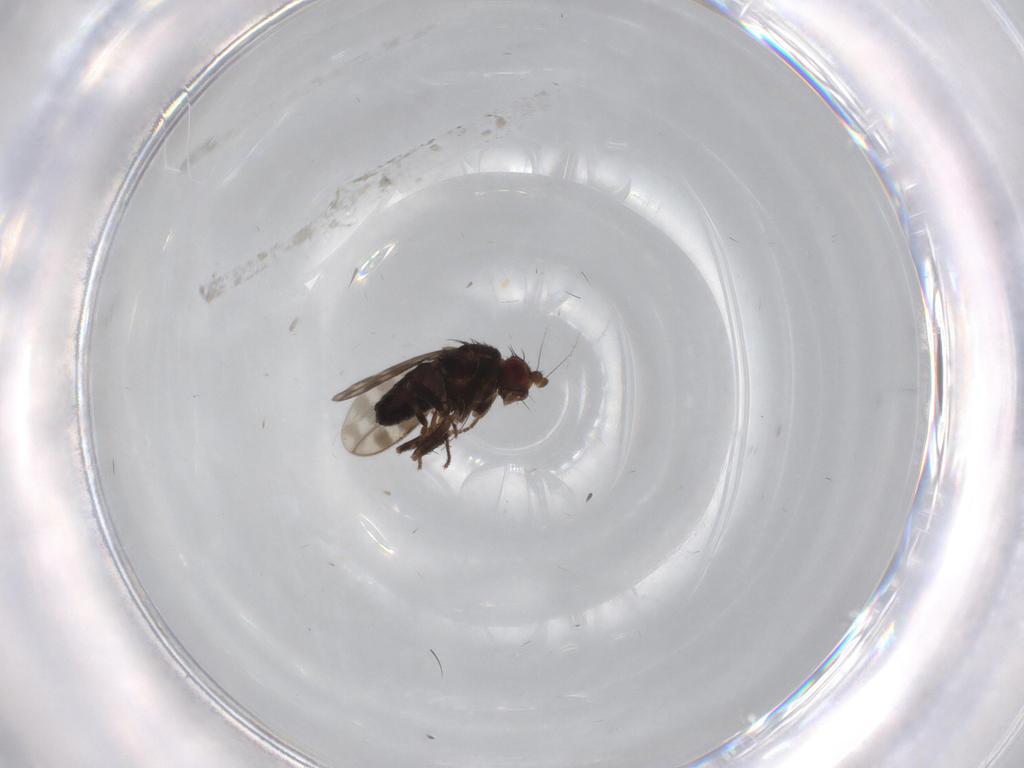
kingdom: Animalia
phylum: Arthropoda
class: Insecta
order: Diptera
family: Sphaeroceridae
